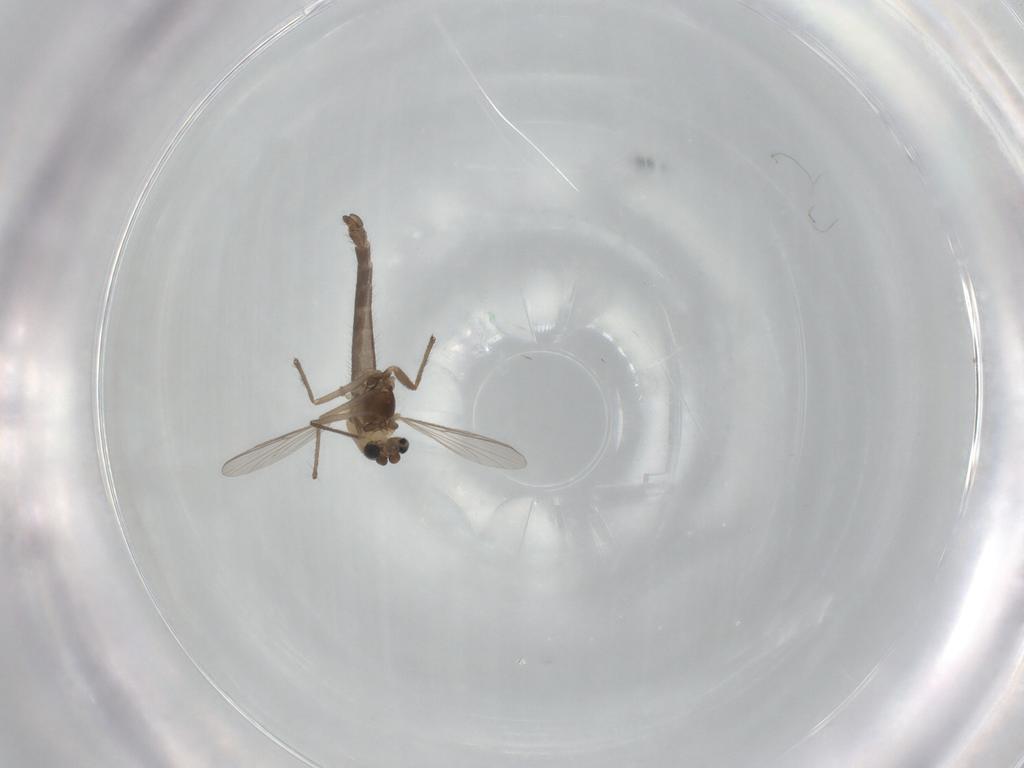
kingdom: Animalia
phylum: Arthropoda
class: Insecta
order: Diptera
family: Chironomidae
